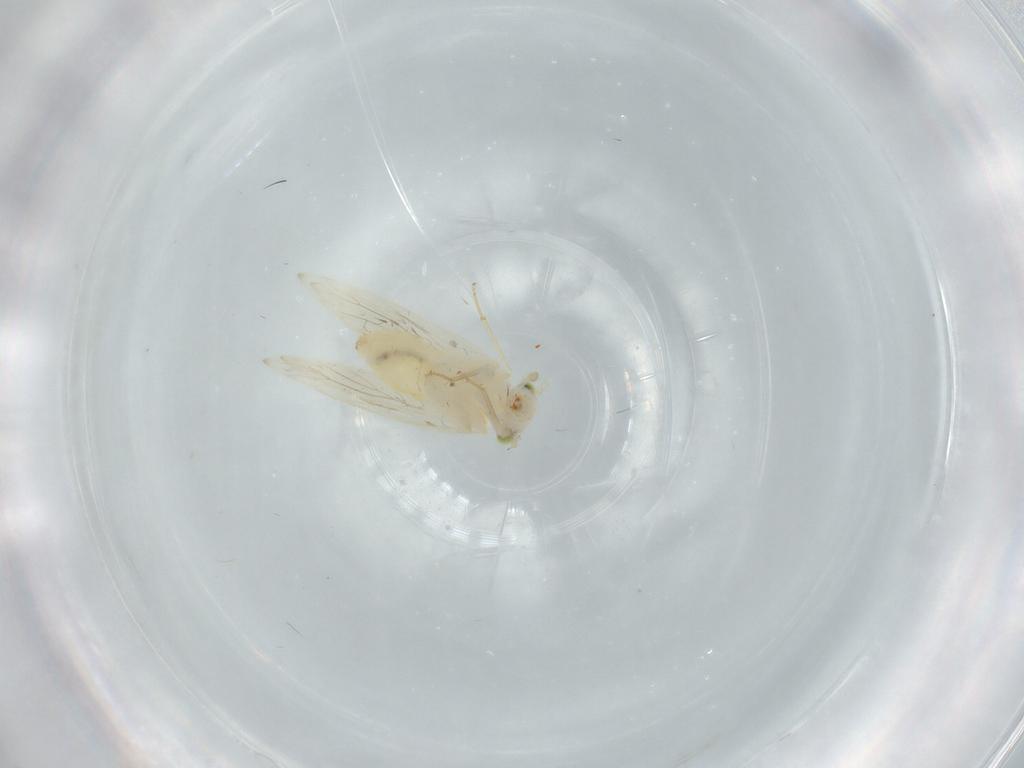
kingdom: Animalia
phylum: Arthropoda
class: Insecta
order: Psocodea
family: Lepidopsocidae
